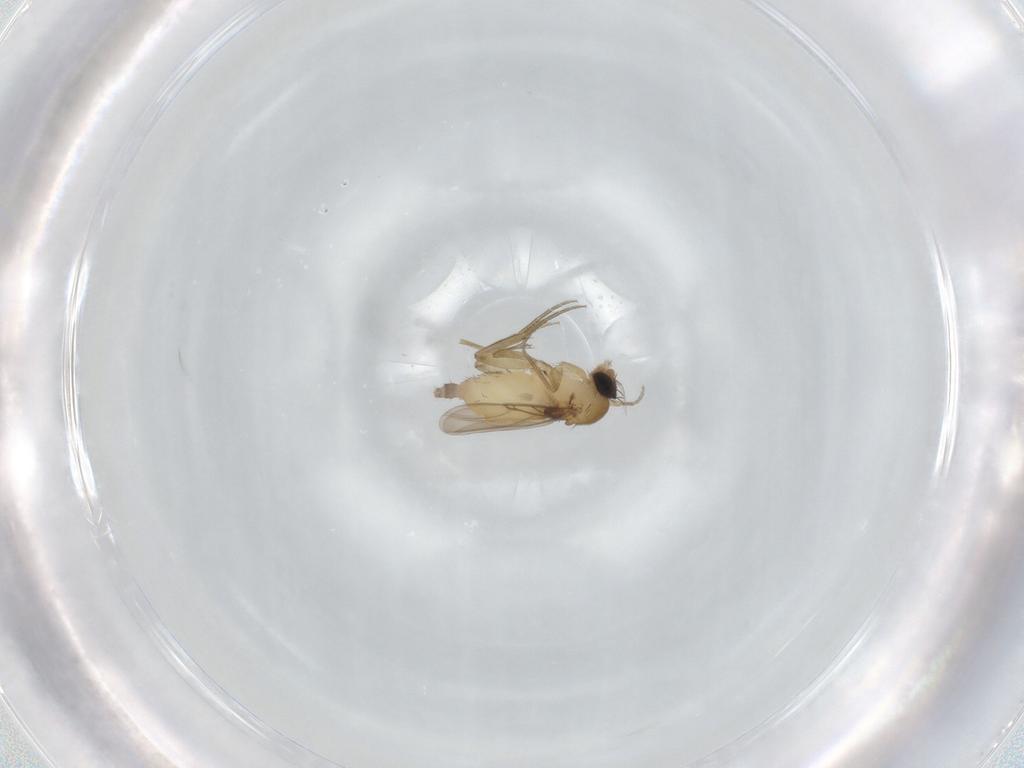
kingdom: Animalia
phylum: Arthropoda
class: Insecta
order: Diptera
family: Phoridae
